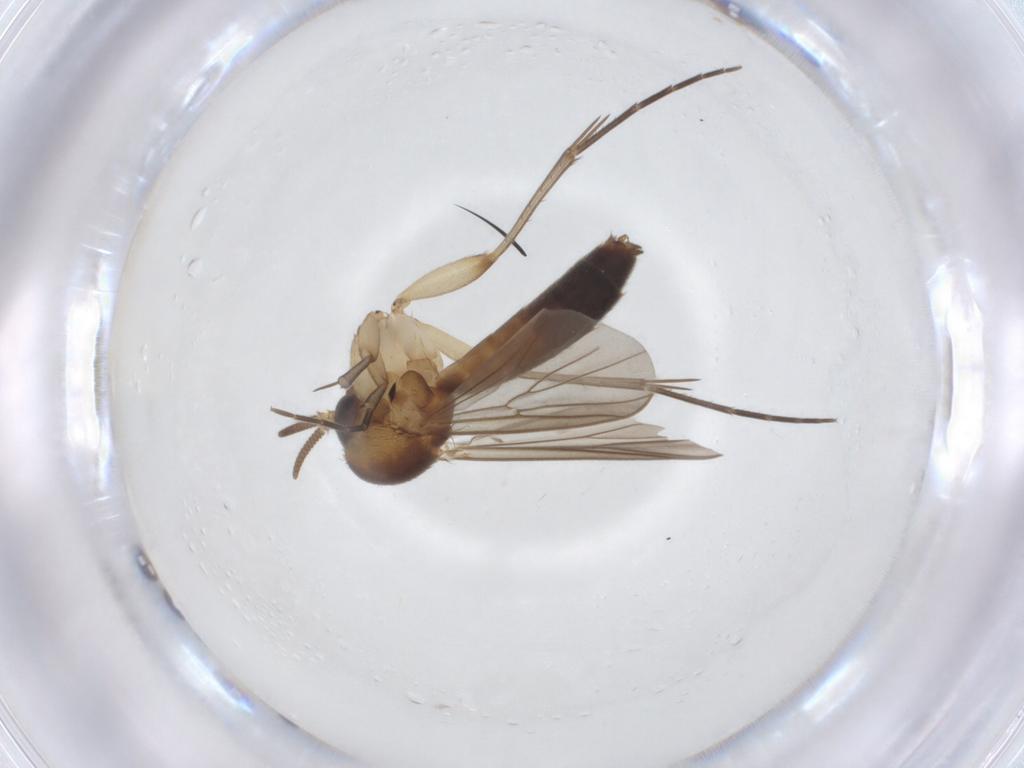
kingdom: Animalia
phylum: Arthropoda
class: Insecta
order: Diptera
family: Mycetophilidae
